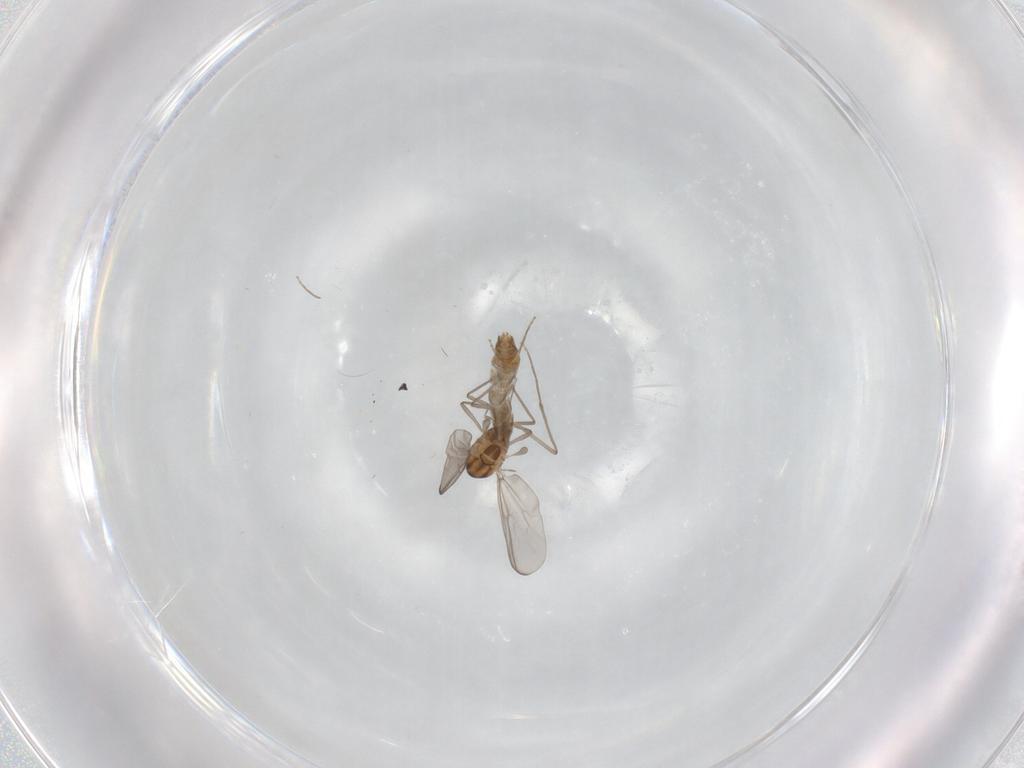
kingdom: Animalia
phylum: Arthropoda
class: Insecta
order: Diptera
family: Chironomidae
